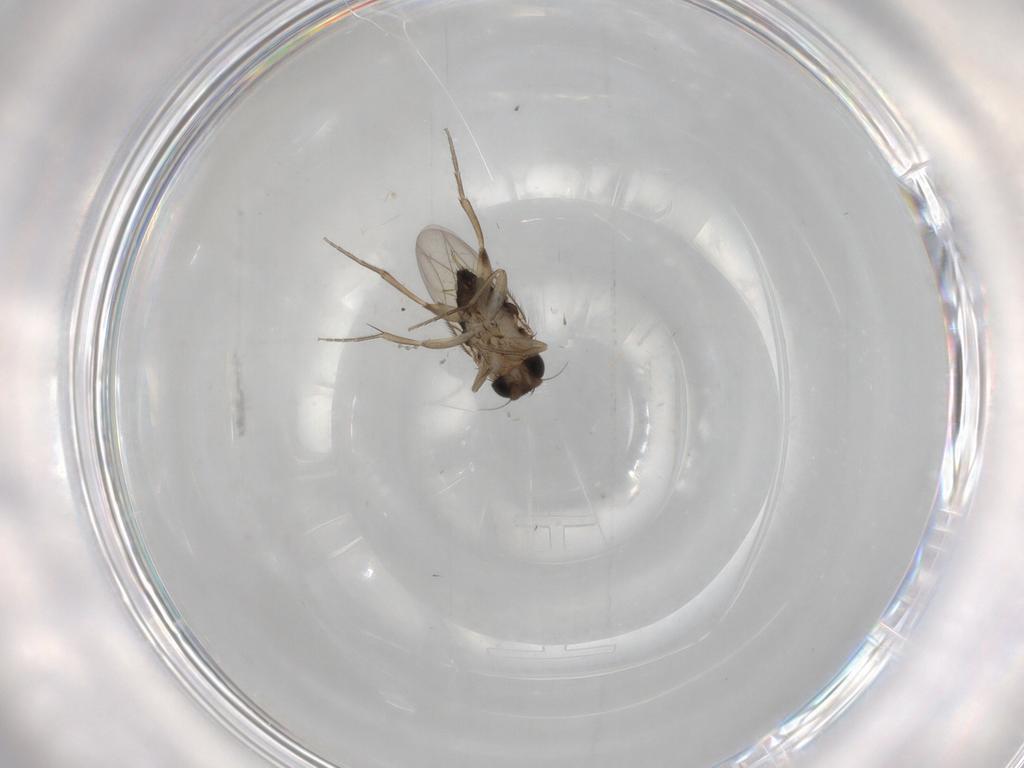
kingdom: Animalia
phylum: Arthropoda
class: Insecta
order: Diptera
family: Phoridae
